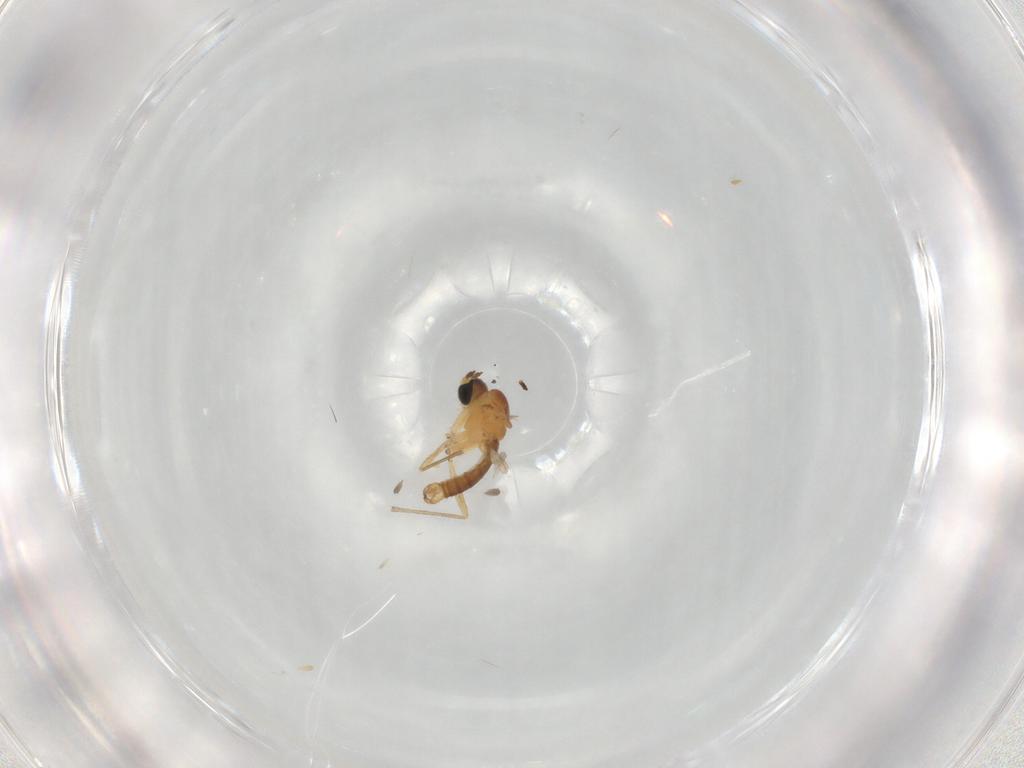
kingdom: Animalia
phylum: Arthropoda
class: Insecta
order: Diptera
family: Sciaridae
